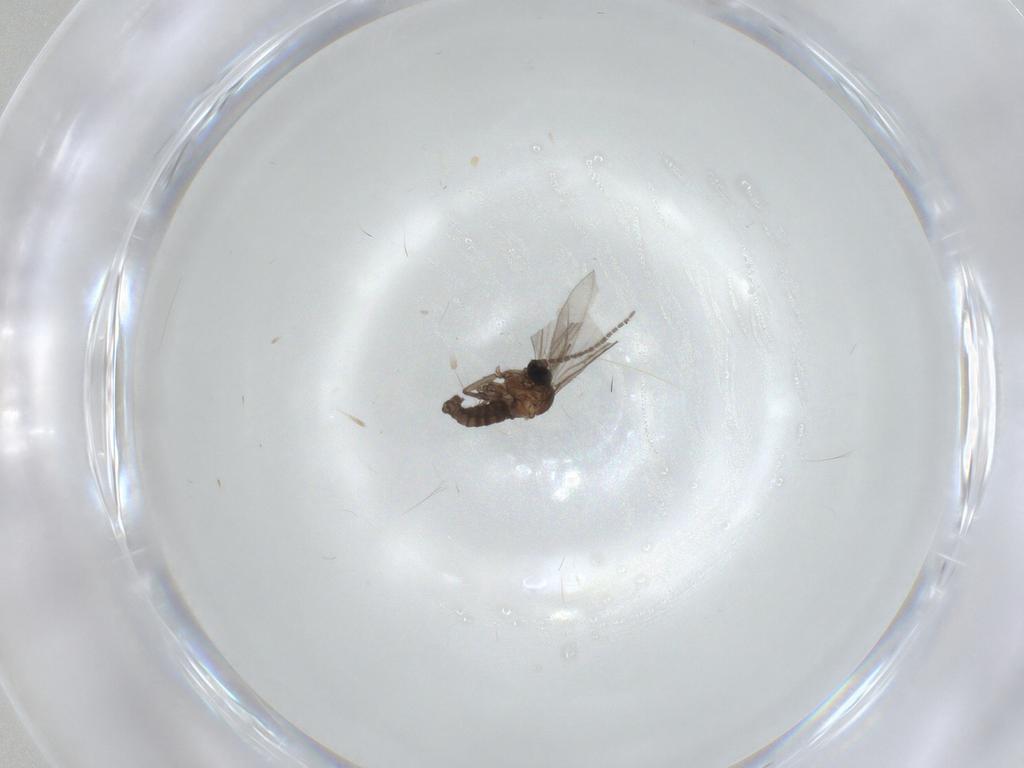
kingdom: Animalia
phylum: Arthropoda
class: Insecta
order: Diptera
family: Sciaridae
